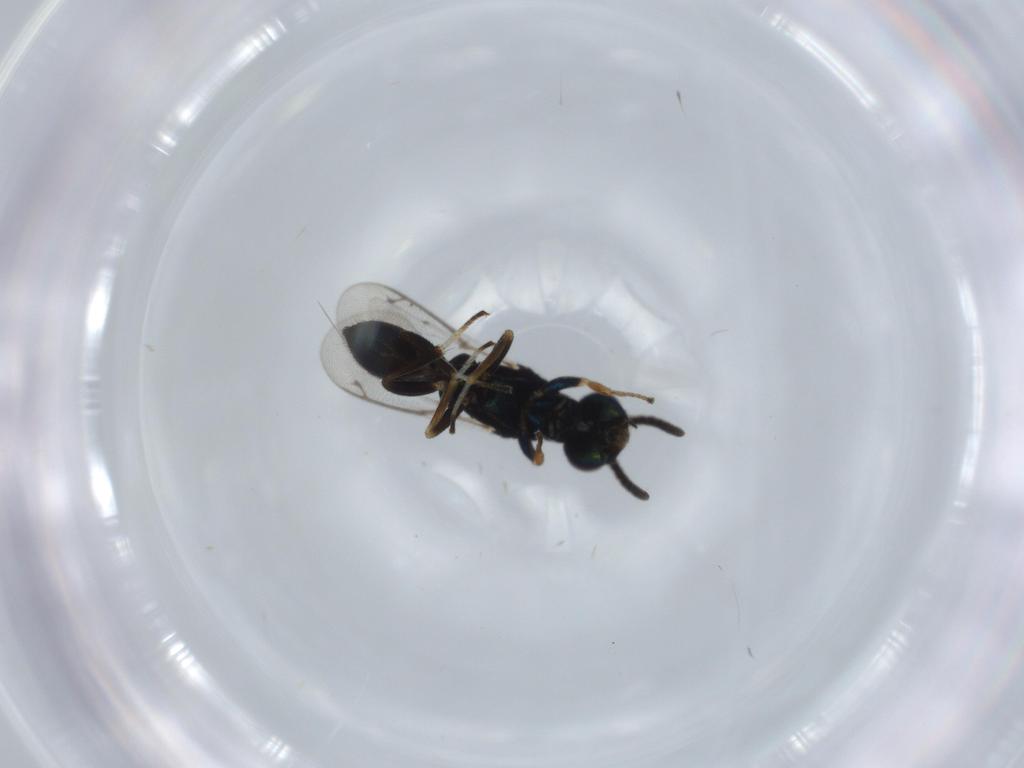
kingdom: Animalia
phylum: Arthropoda
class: Insecta
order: Hymenoptera
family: Eupelmidae
